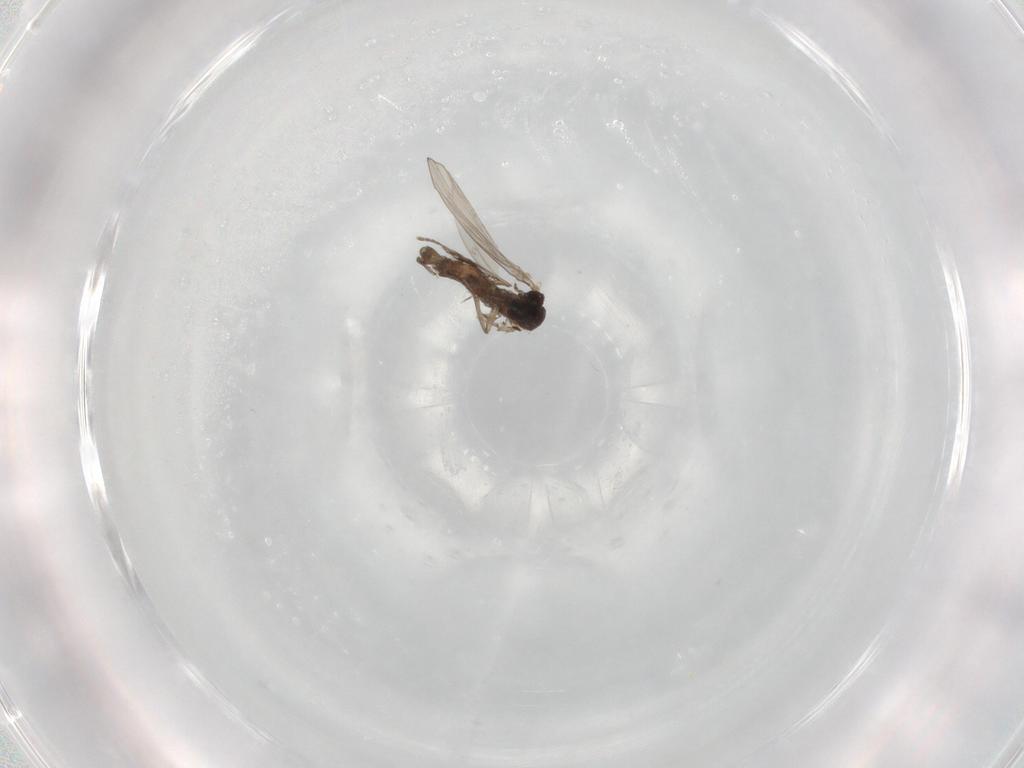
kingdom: Animalia
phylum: Arthropoda
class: Insecta
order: Diptera
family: Psychodidae
